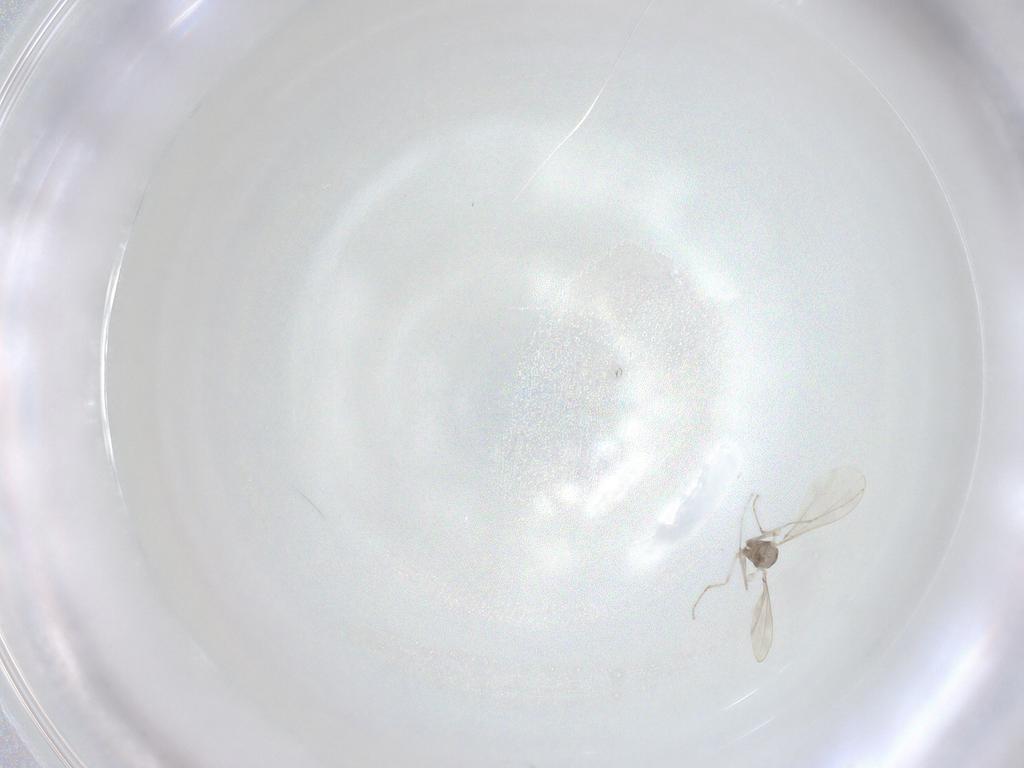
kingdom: Animalia
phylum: Arthropoda
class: Insecta
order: Hymenoptera
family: Scelionidae
